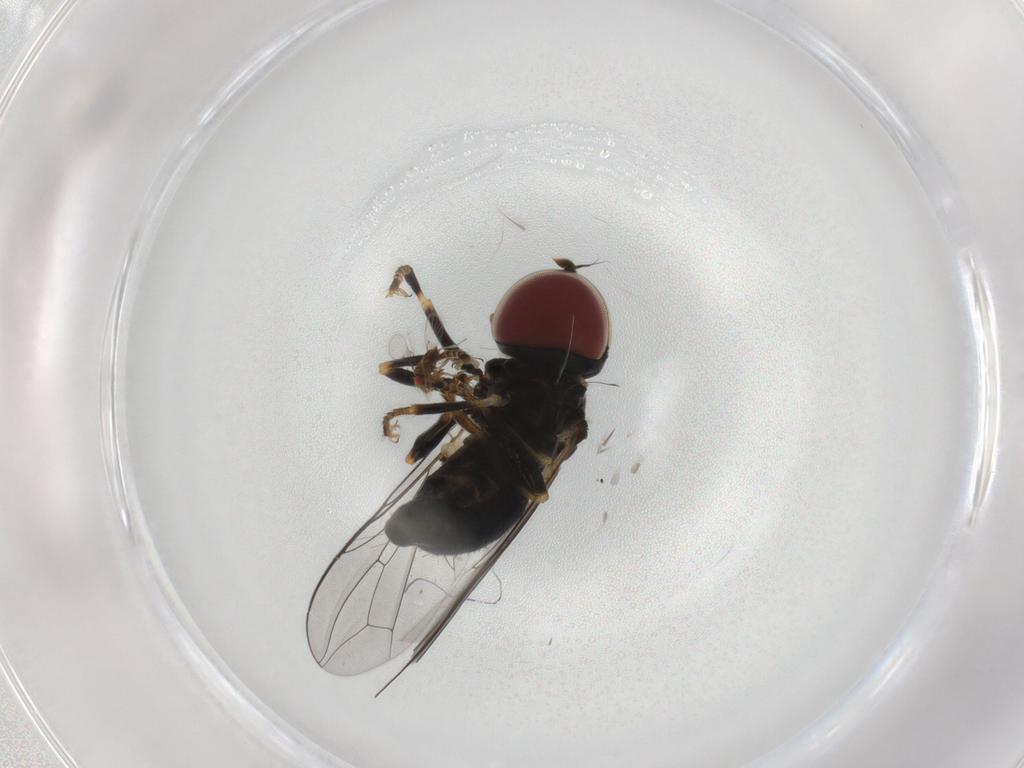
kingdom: Animalia
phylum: Arthropoda
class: Insecta
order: Diptera
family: Pipunculidae
